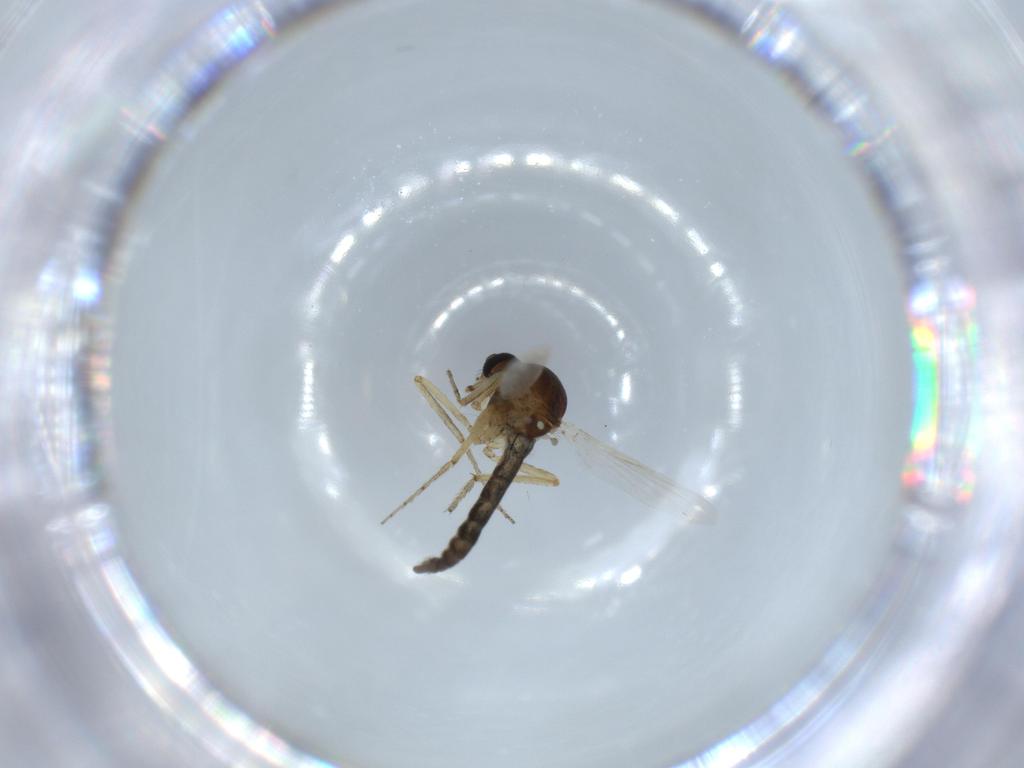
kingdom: Animalia
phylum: Arthropoda
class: Insecta
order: Diptera
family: Ceratopogonidae
